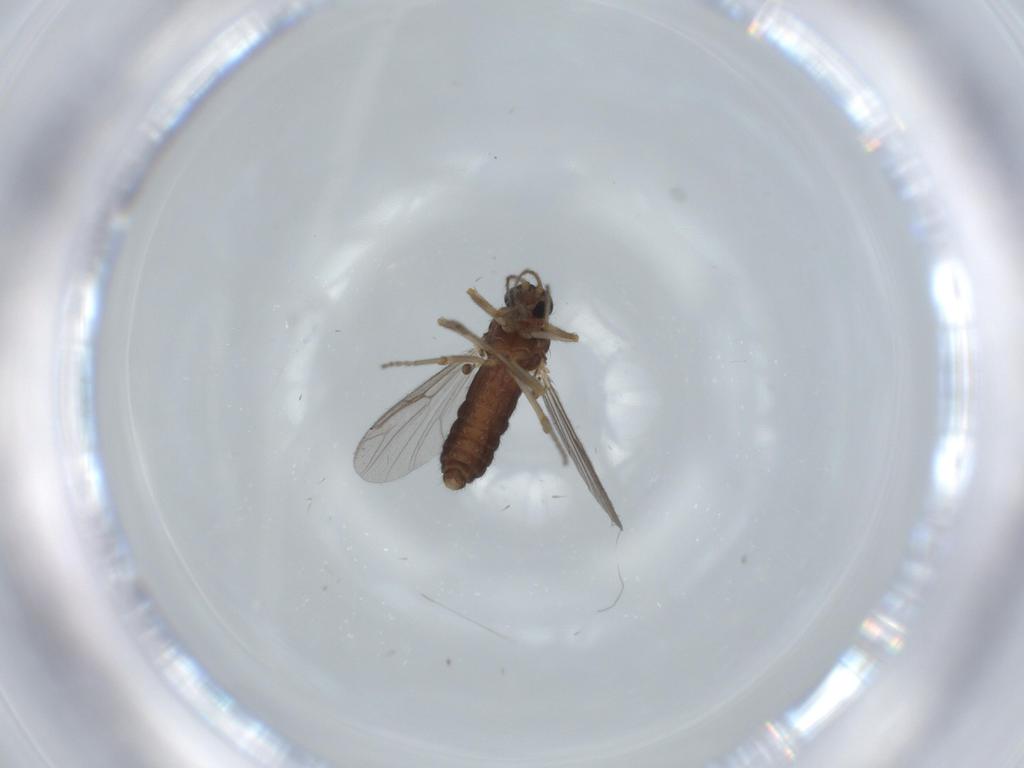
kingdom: Animalia
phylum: Arthropoda
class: Insecta
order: Diptera
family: Ceratopogonidae
